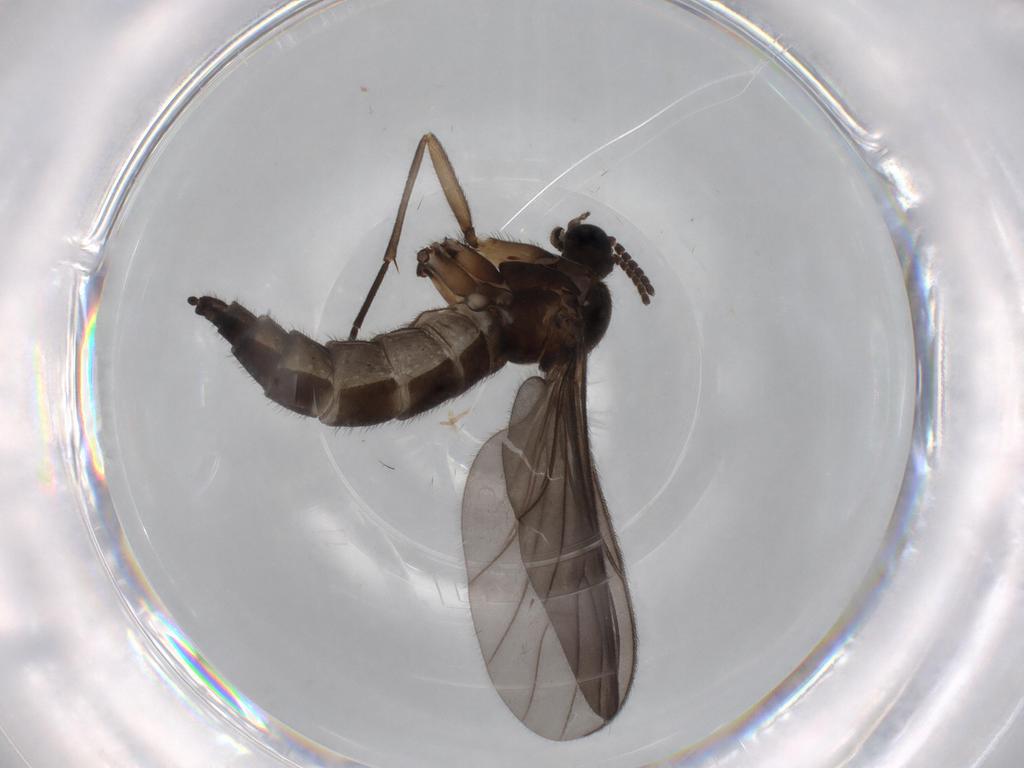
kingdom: Animalia
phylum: Arthropoda
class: Insecta
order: Diptera
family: Sciaridae
